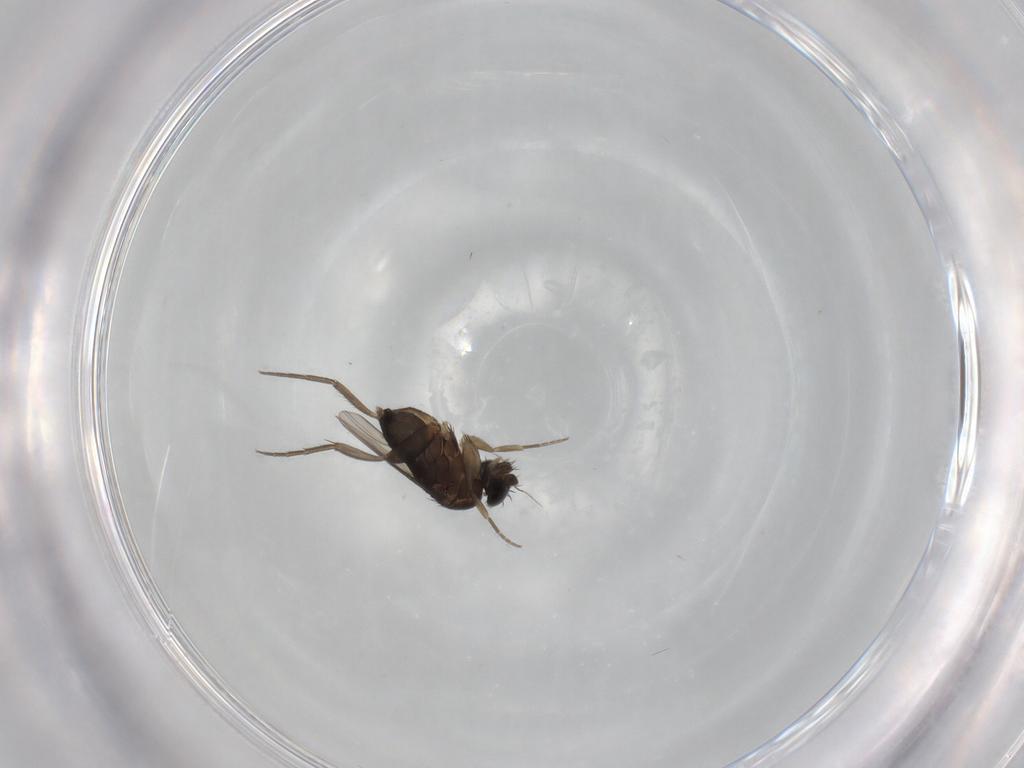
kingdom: Animalia
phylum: Arthropoda
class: Insecta
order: Diptera
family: Phoridae
